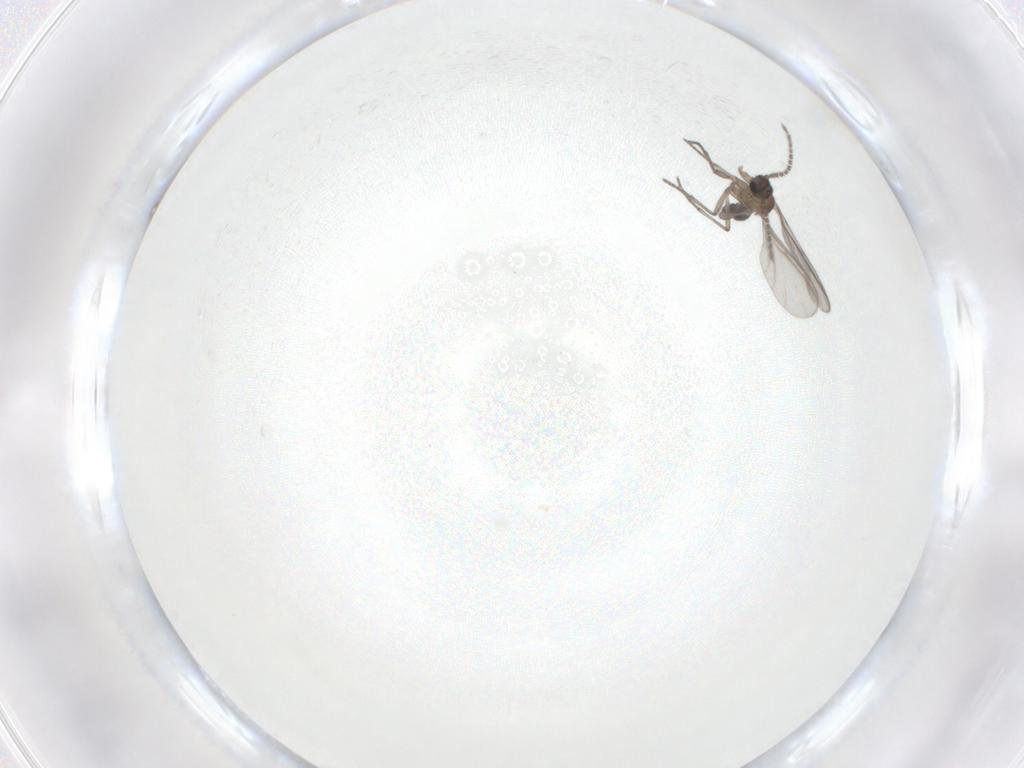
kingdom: Animalia
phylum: Arthropoda
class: Insecta
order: Diptera
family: Sciaridae
